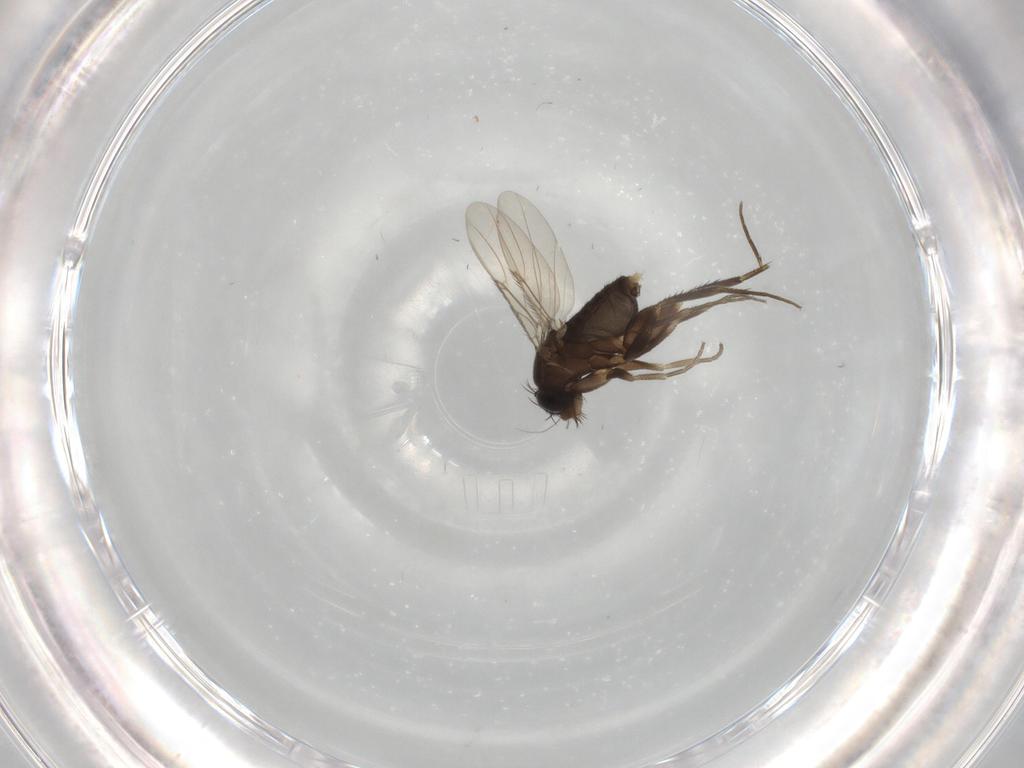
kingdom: Animalia
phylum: Arthropoda
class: Insecta
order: Diptera
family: Phoridae
